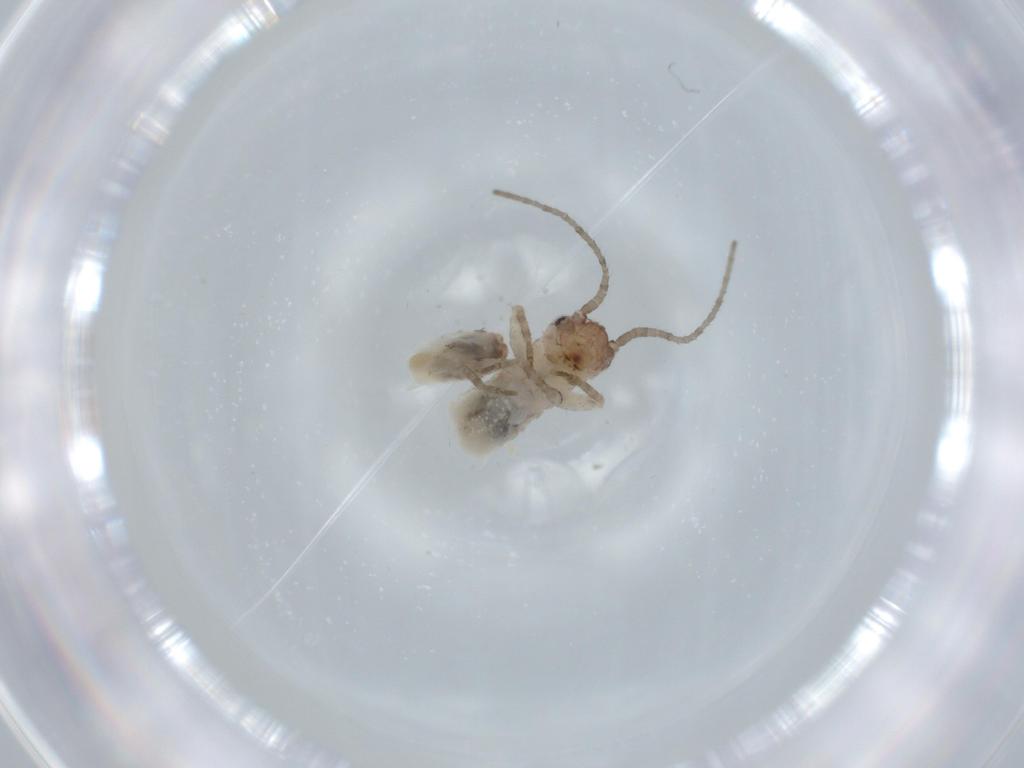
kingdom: Animalia
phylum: Arthropoda
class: Insecta
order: Orthoptera
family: Gryllidae
